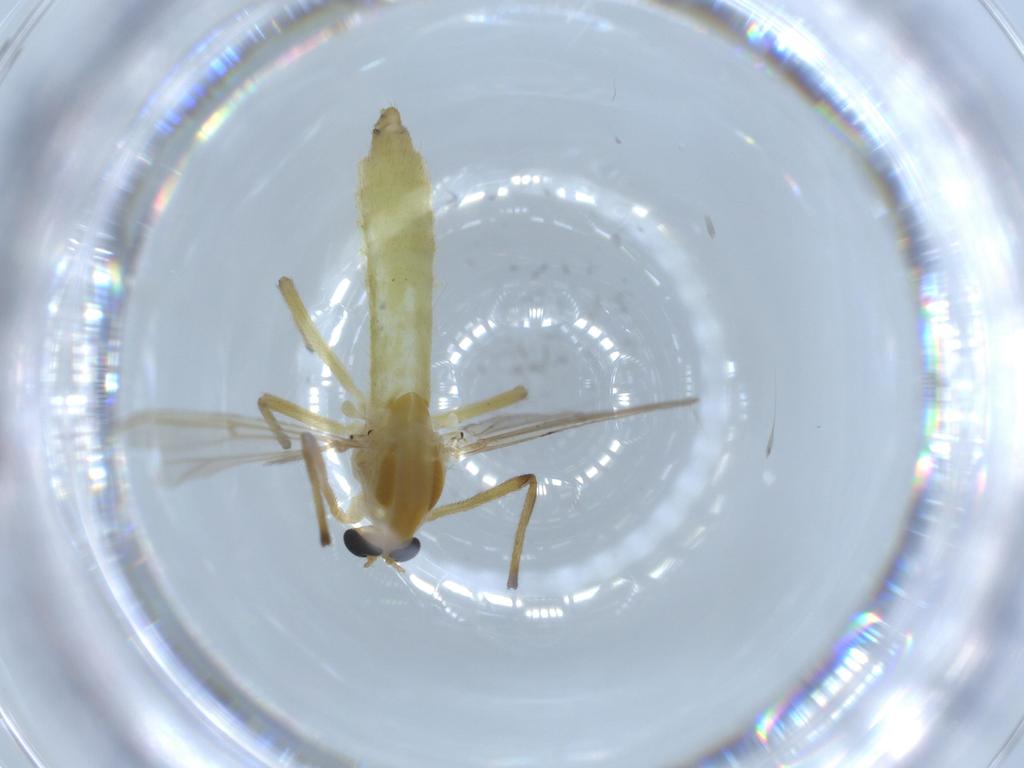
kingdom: Animalia
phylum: Arthropoda
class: Insecta
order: Diptera
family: Chironomidae
